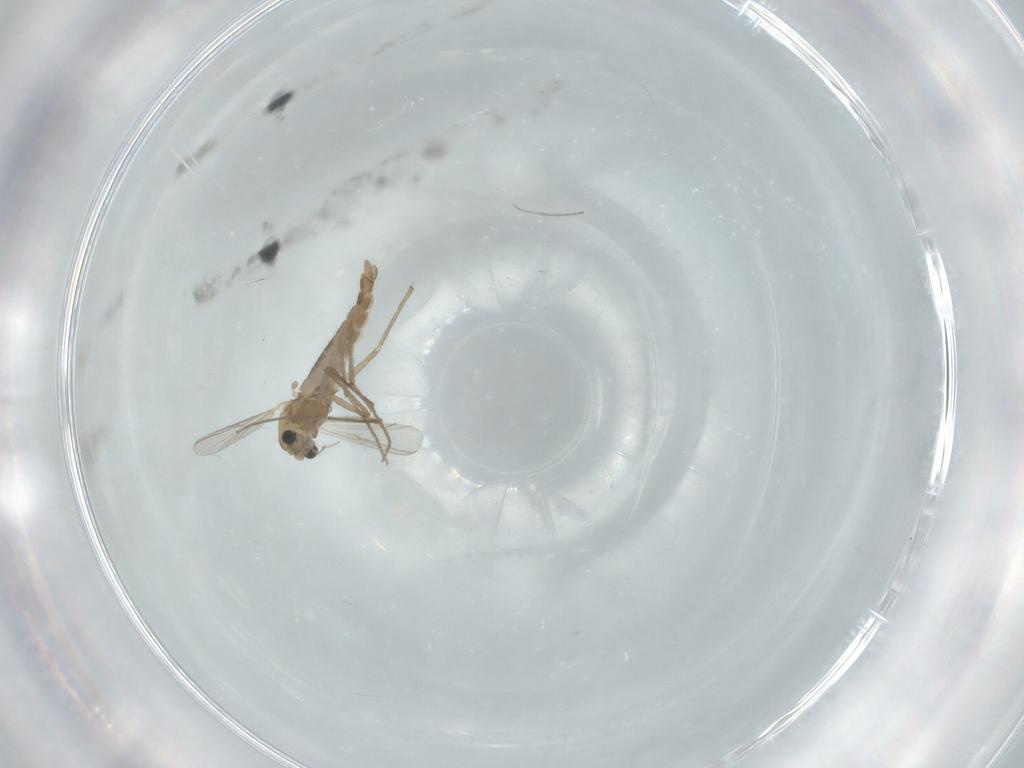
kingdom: Animalia
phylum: Arthropoda
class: Insecta
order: Diptera
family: Chironomidae
